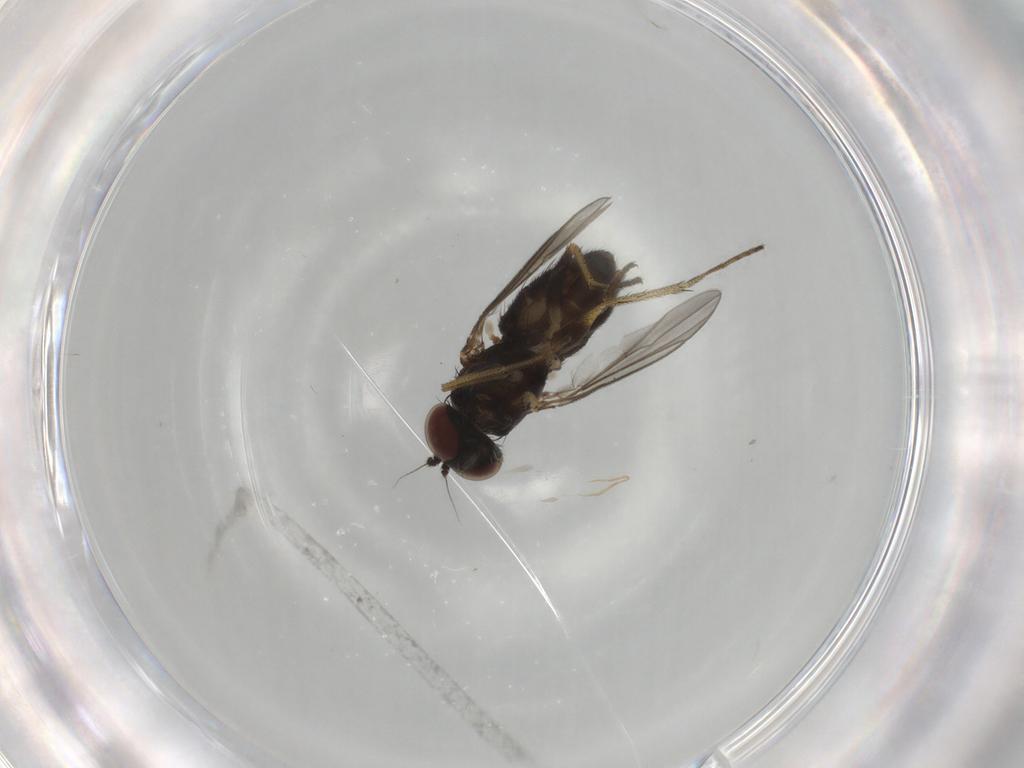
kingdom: Animalia
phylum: Arthropoda
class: Insecta
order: Diptera
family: Drosophilidae
